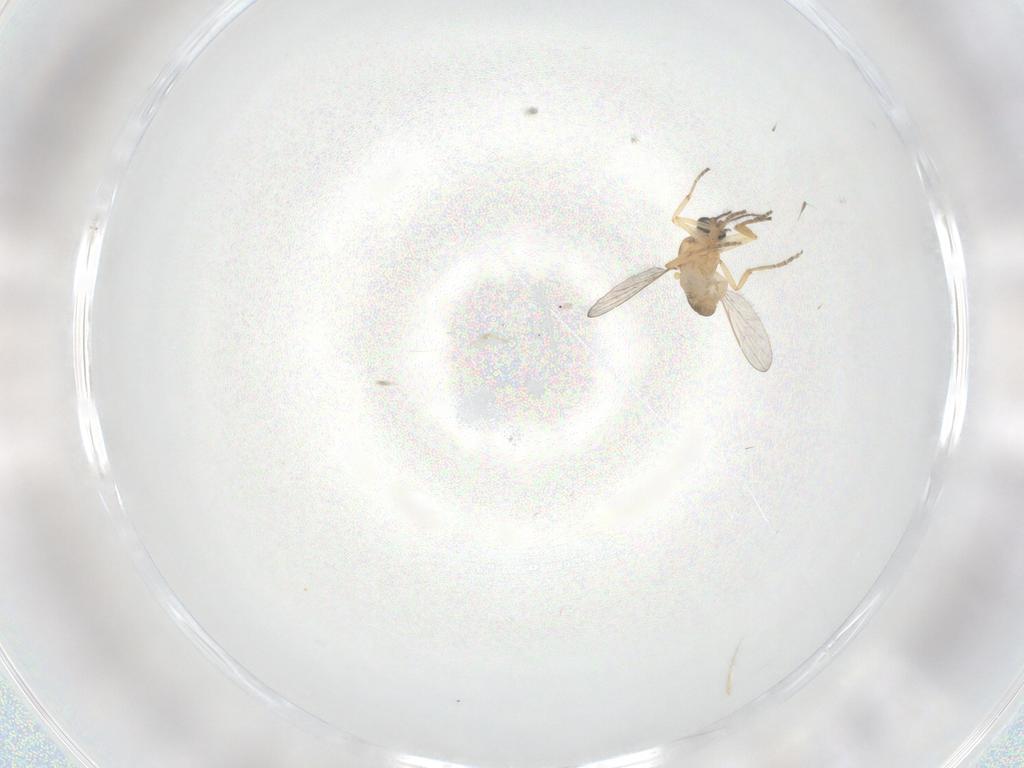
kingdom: Animalia
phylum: Arthropoda
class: Insecta
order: Diptera
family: Ceratopogonidae
